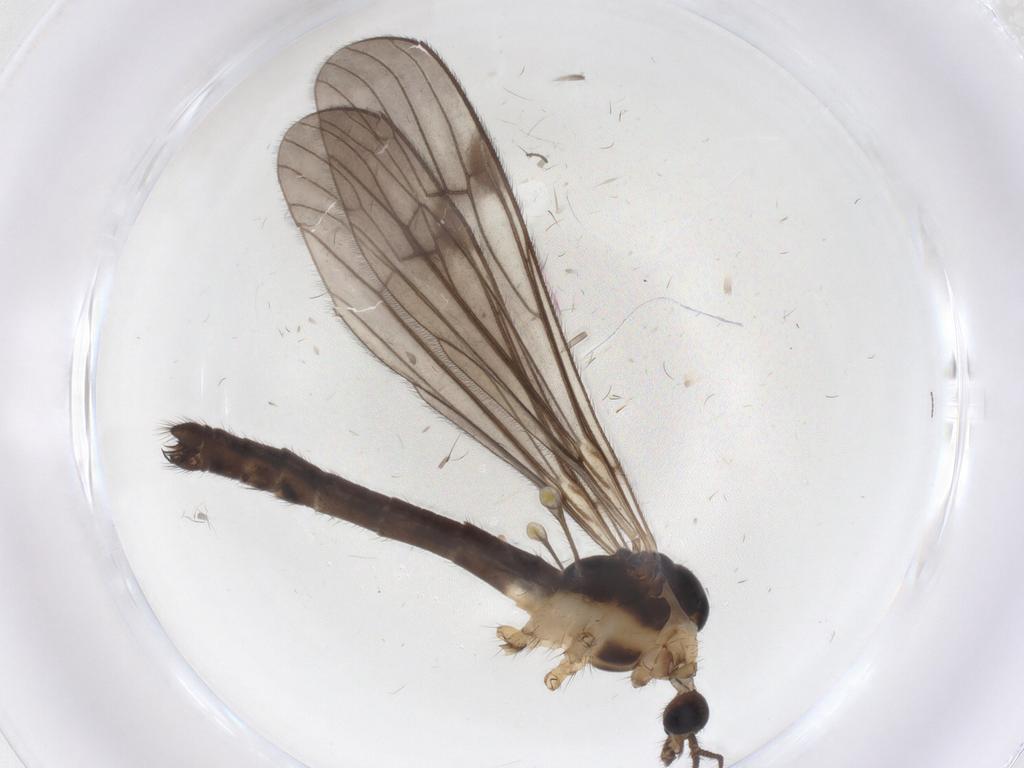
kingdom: Animalia
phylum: Arthropoda
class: Insecta
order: Diptera
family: Limoniidae
